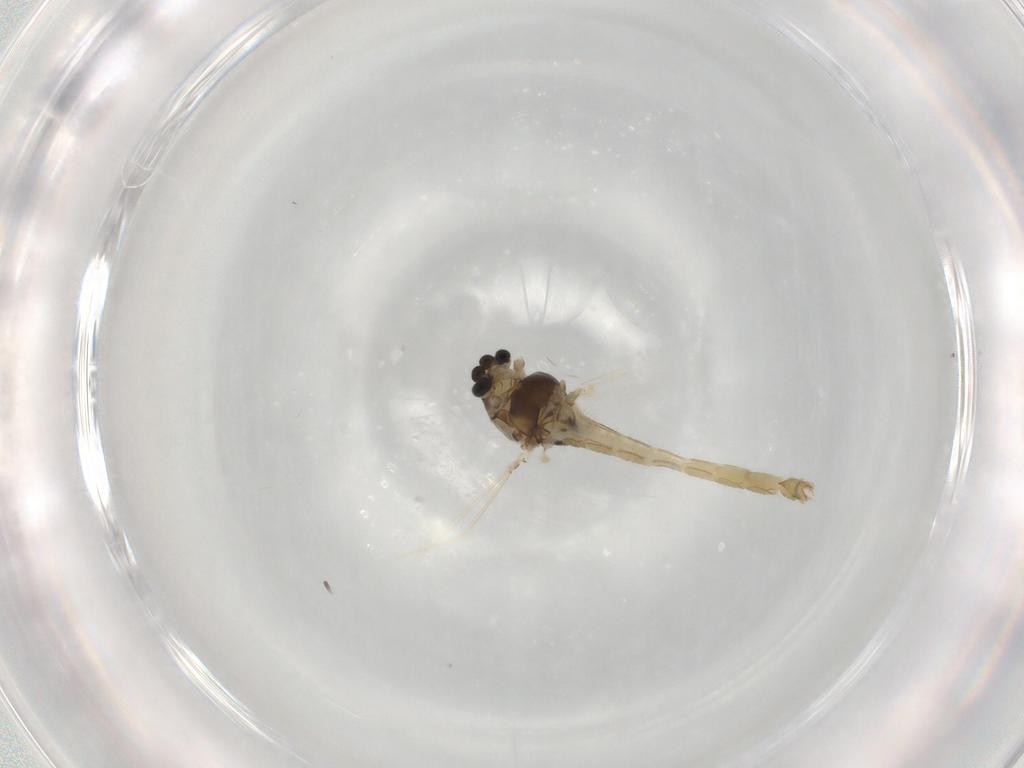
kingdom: Animalia
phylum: Arthropoda
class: Insecta
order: Diptera
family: Chironomidae
